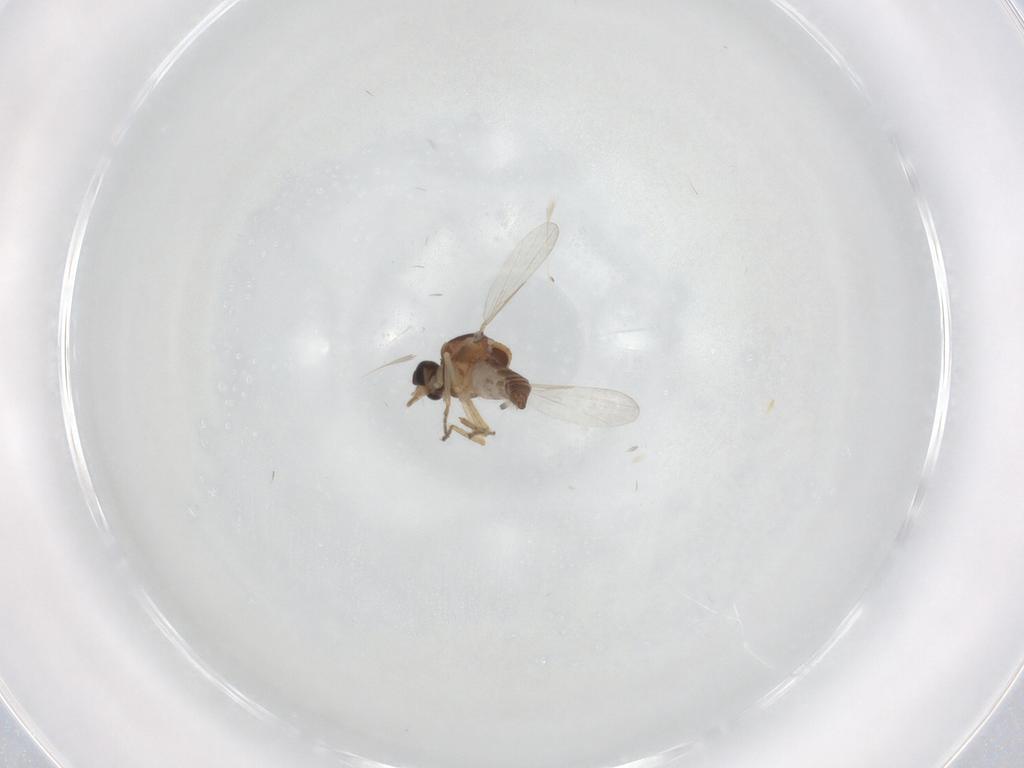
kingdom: Animalia
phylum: Arthropoda
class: Insecta
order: Diptera
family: Ceratopogonidae
